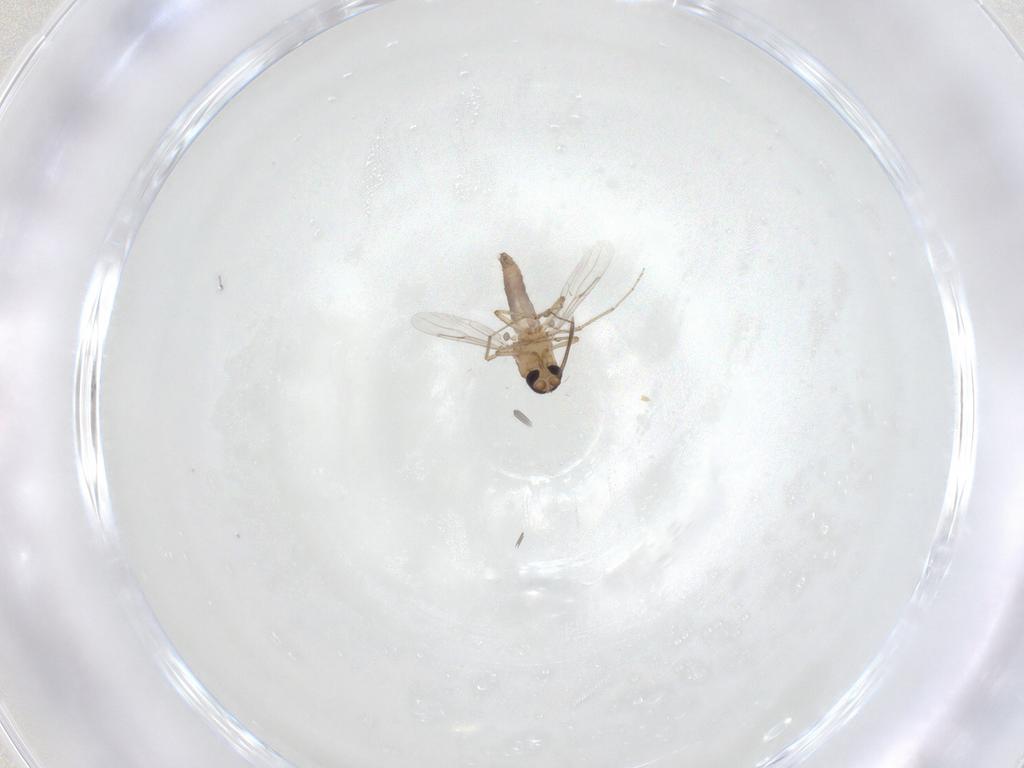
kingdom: Animalia
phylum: Arthropoda
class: Insecta
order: Diptera
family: Ceratopogonidae
